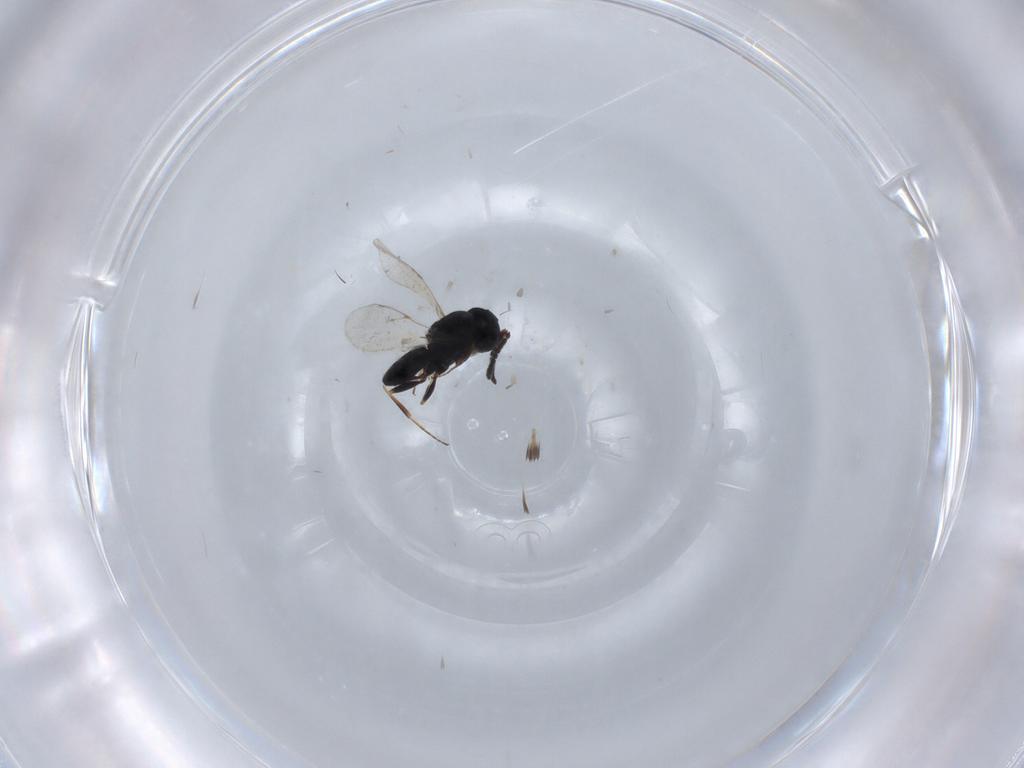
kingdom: Animalia
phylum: Arthropoda
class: Insecta
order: Hymenoptera
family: Scelionidae
